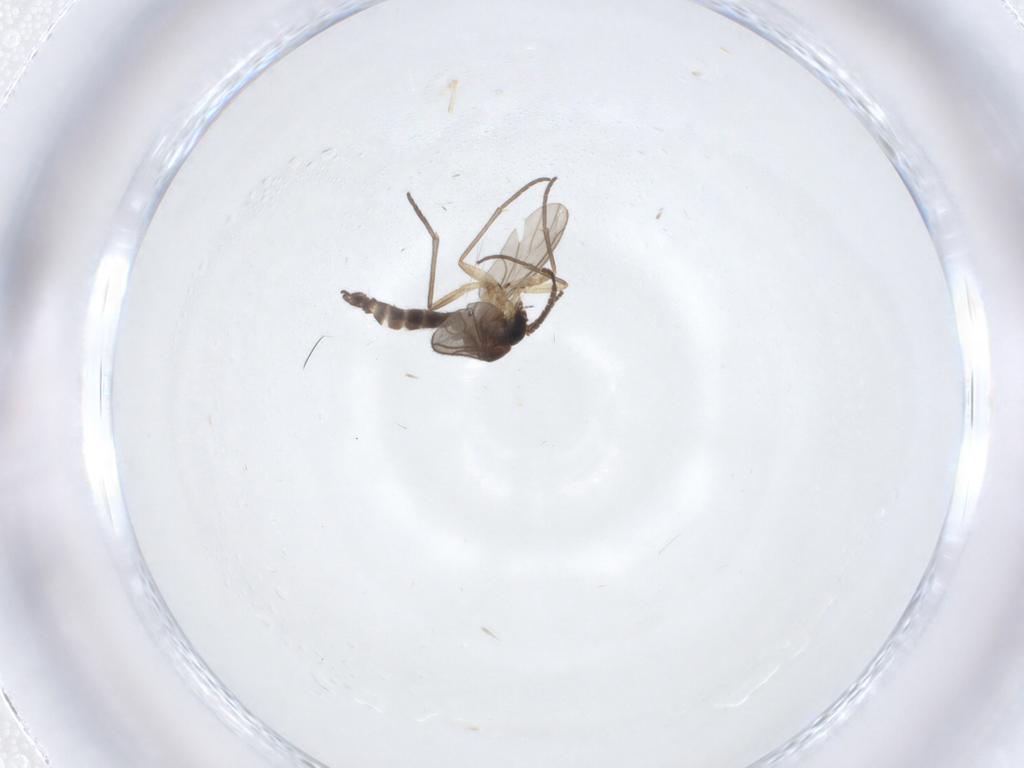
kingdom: Animalia
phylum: Arthropoda
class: Insecta
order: Diptera
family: Sciaridae
